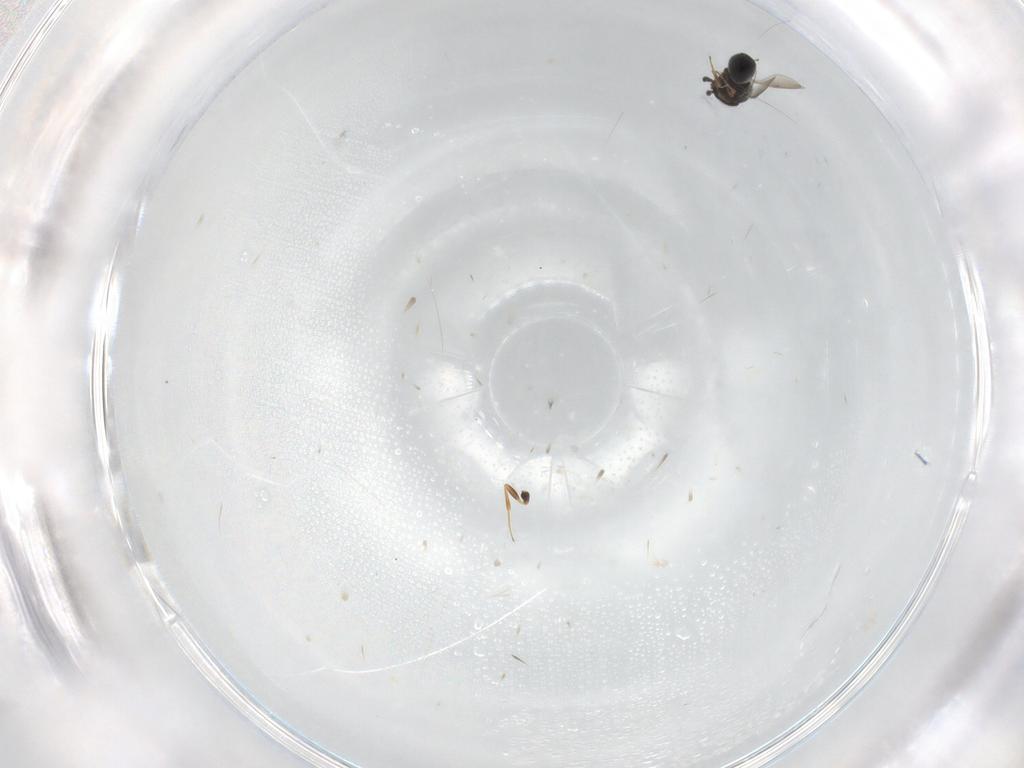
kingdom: Animalia
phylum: Arthropoda
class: Insecta
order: Hymenoptera
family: Scelionidae
